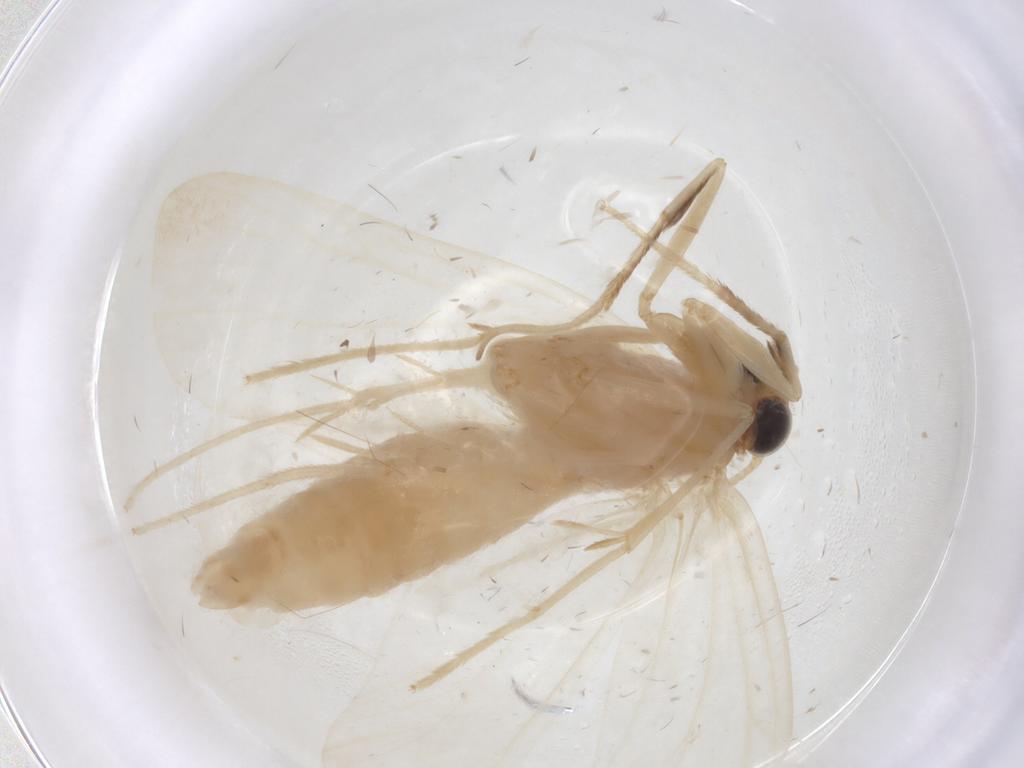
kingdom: Animalia
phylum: Arthropoda
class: Insecta
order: Lepidoptera
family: Crambidae
